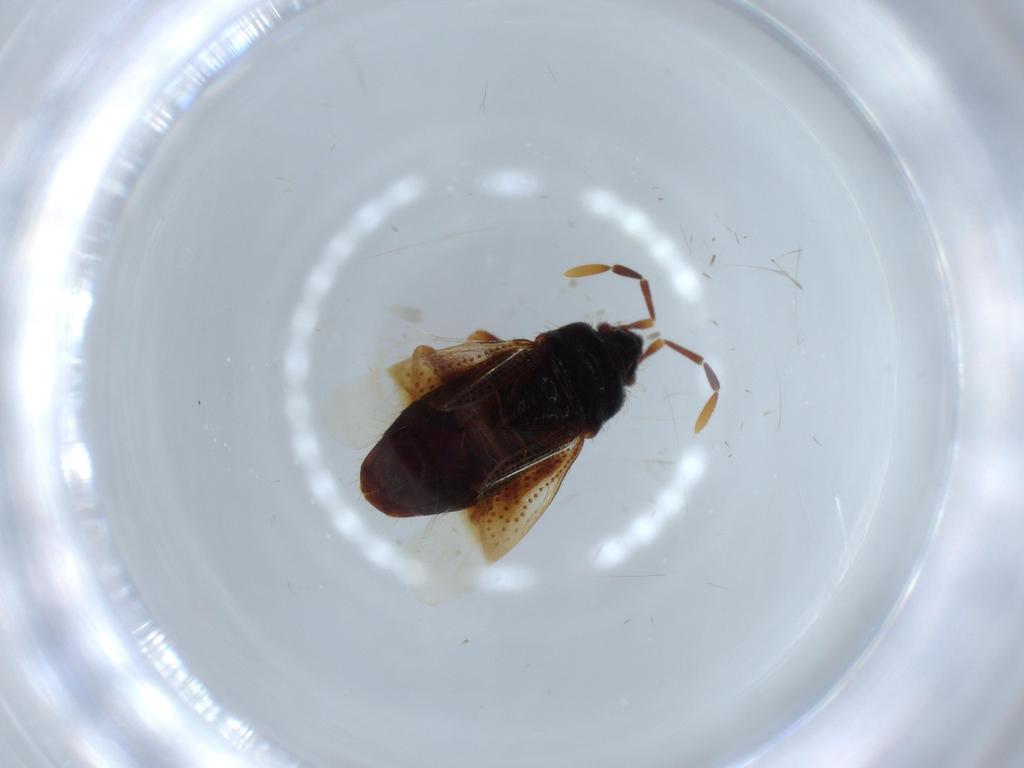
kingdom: Animalia
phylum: Arthropoda
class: Insecta
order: Hemiptera
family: Rhyparochromidae
